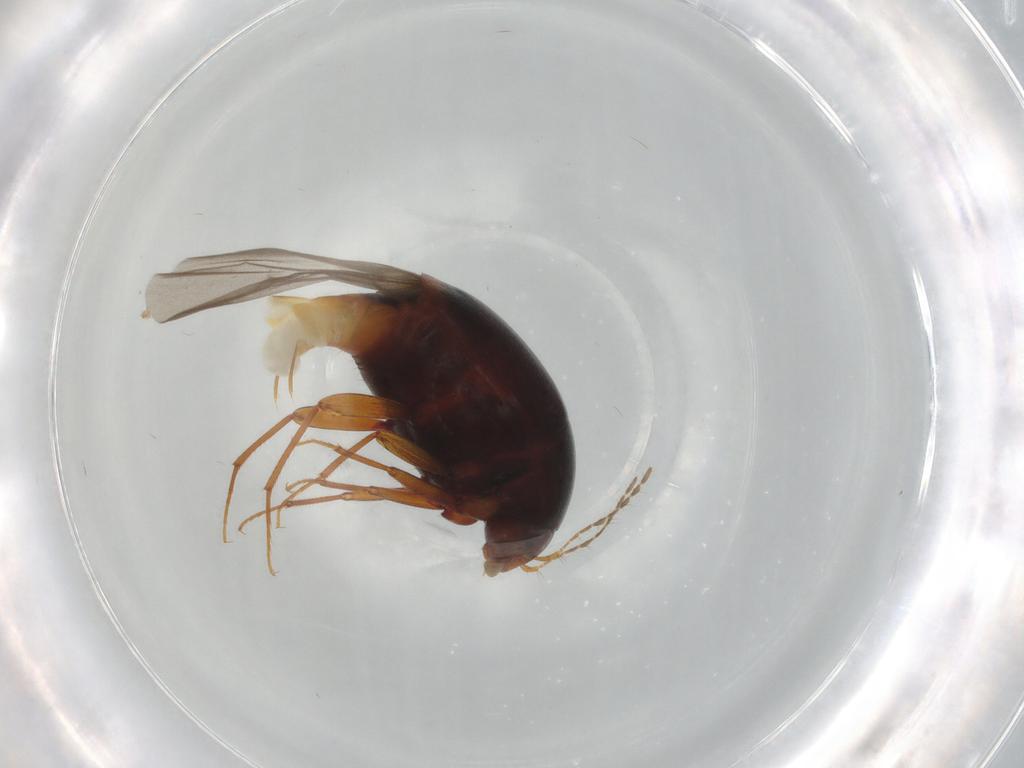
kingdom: Animalia
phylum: Arthropoda
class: Insecta
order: Coleoptera
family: Staphylinidae
